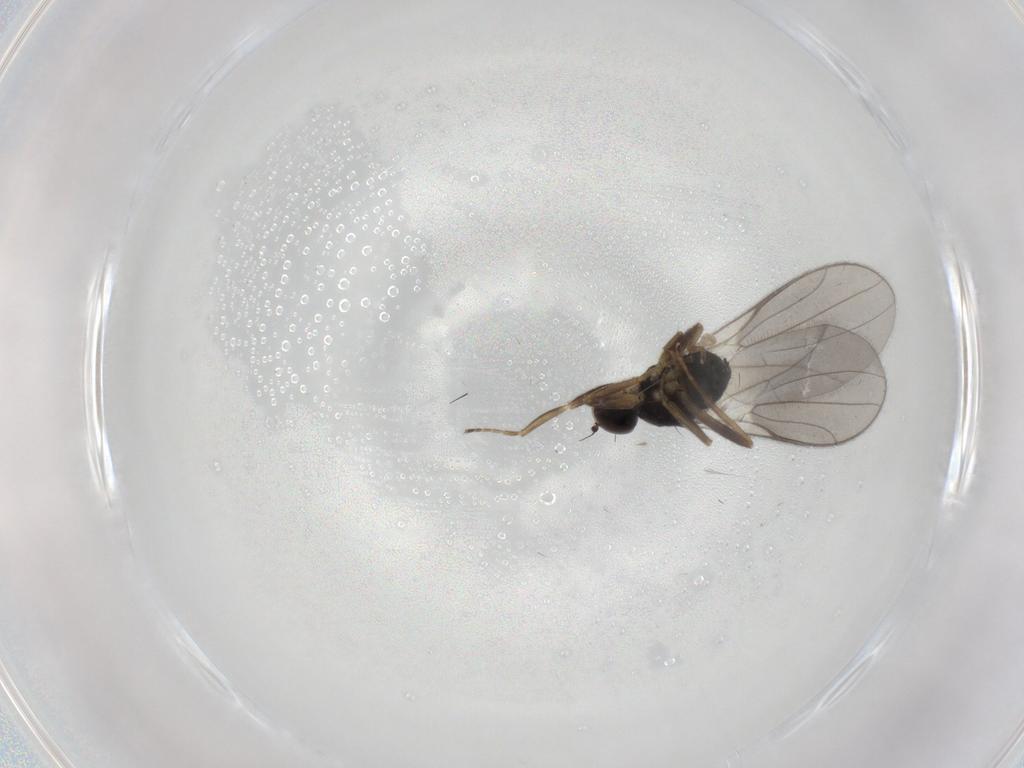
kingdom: Animalia
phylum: Arthropoda
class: Insecta
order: Diptera
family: Hybotidae
